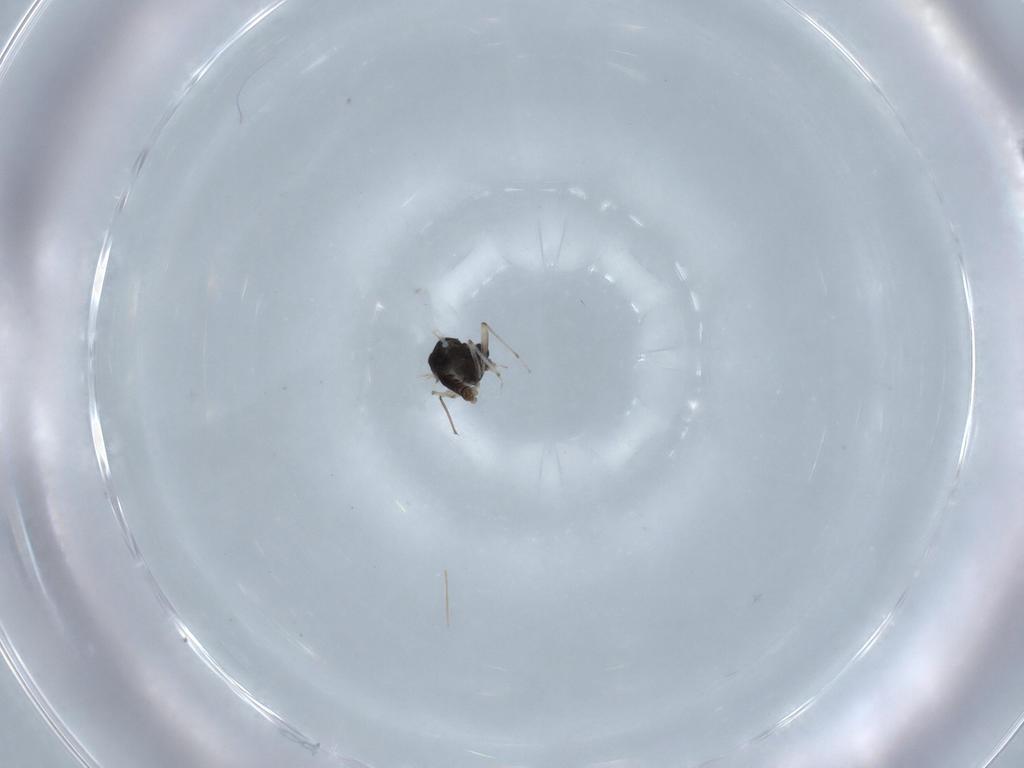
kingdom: Animalia
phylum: Arthropoda
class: Insecta
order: Diptera
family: Chironomidae
